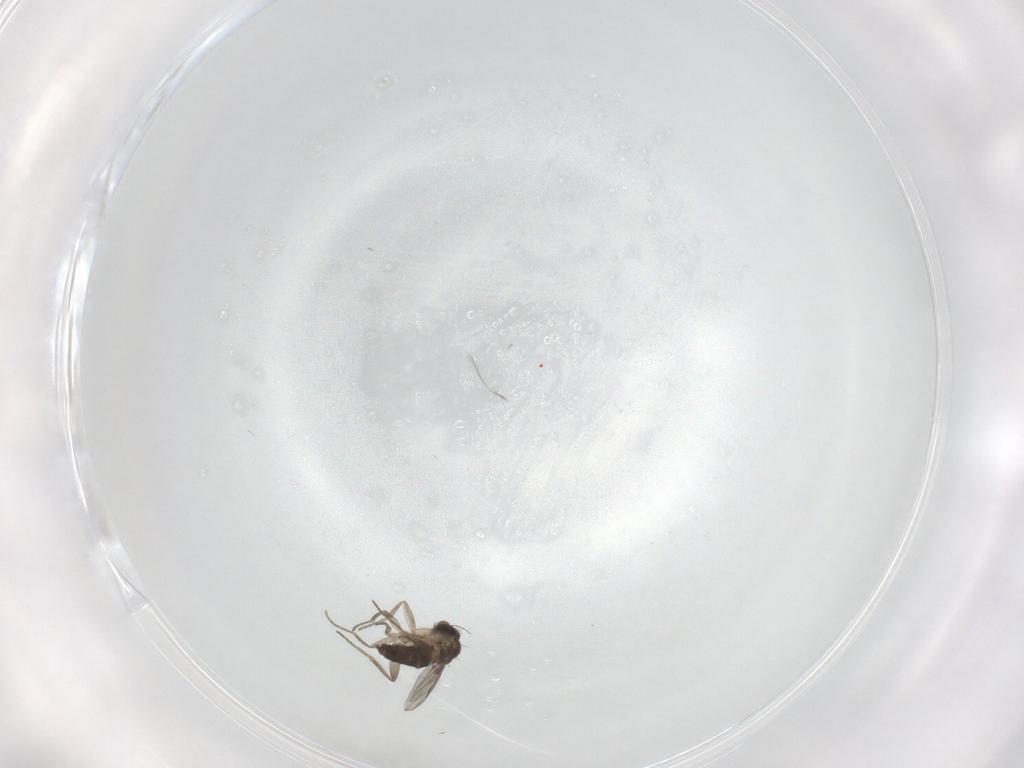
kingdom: Animalia
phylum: Arthropoda
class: Insecta
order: Diptera
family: Phoridae
